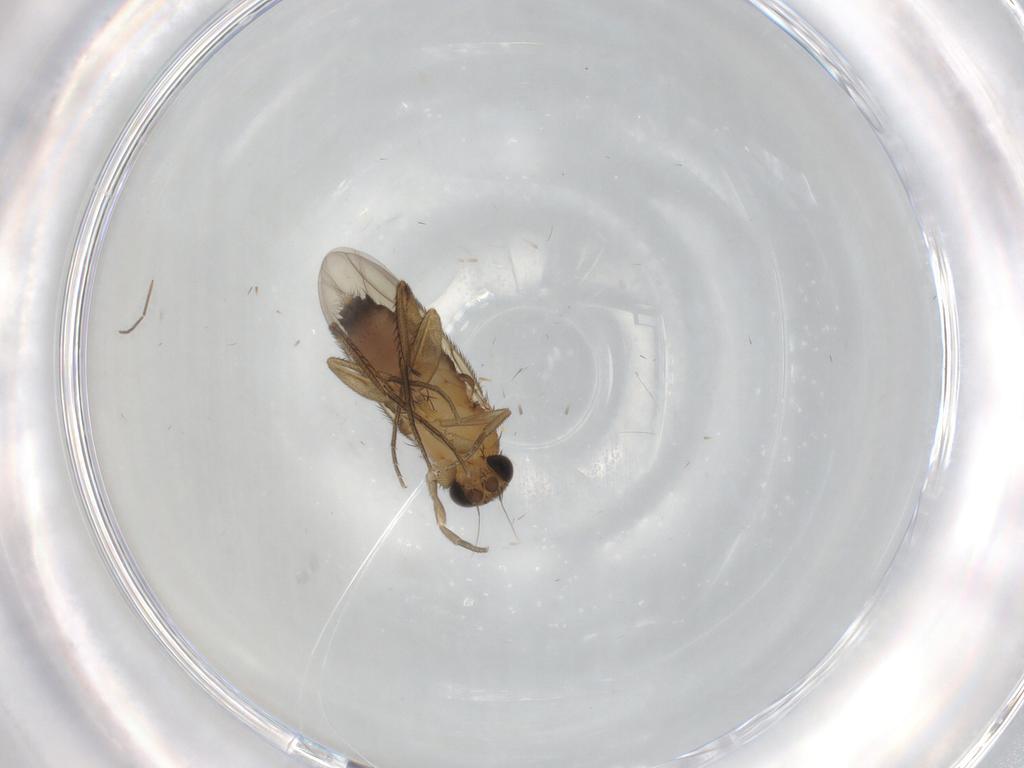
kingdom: Animalia
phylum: Arthropoda
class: Insecta
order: Diptera
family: Phoridae
